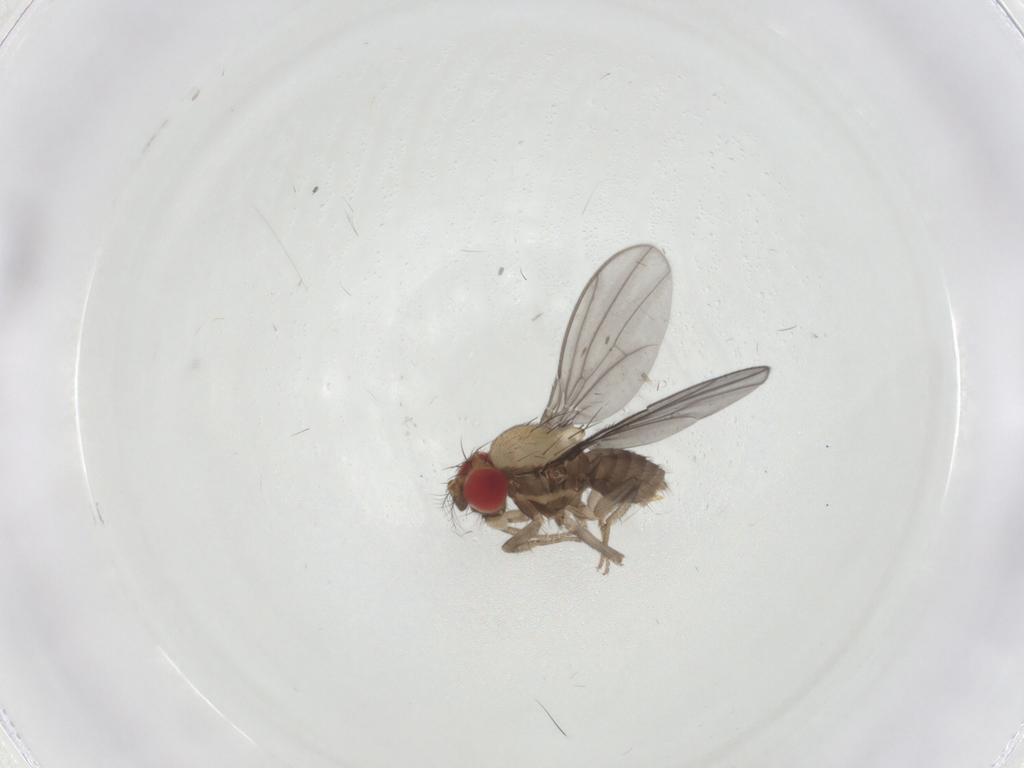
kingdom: Animalia
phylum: Arthropoda
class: Insecta
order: Diptera
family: Drosophilidae
